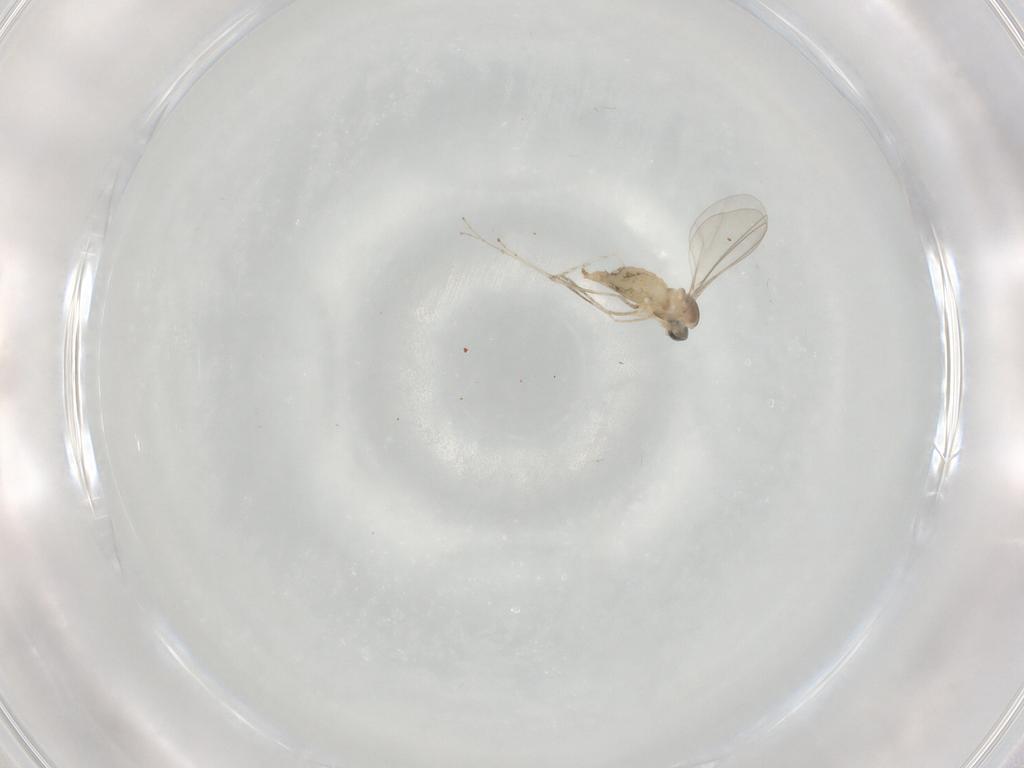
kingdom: Animalia
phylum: Arthropoda
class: Insecta
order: Diptera
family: Cecidomyiidae
